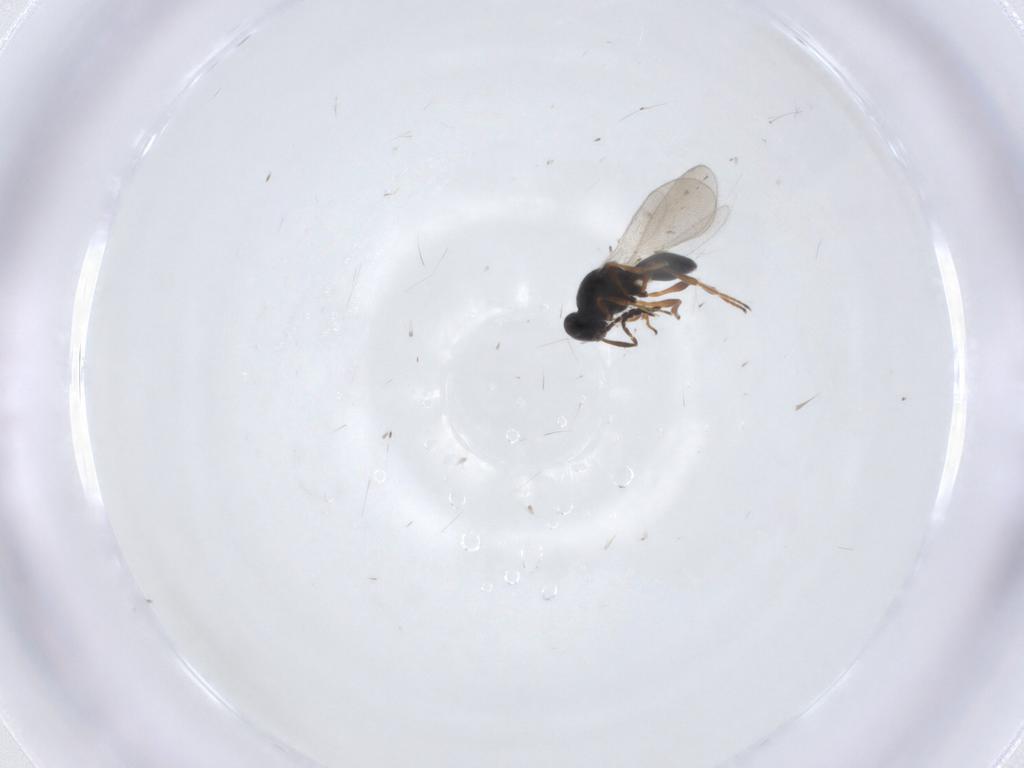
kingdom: Animalia
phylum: Arthropoda
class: Insecta
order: Hymenoptera
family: Platygastridae
